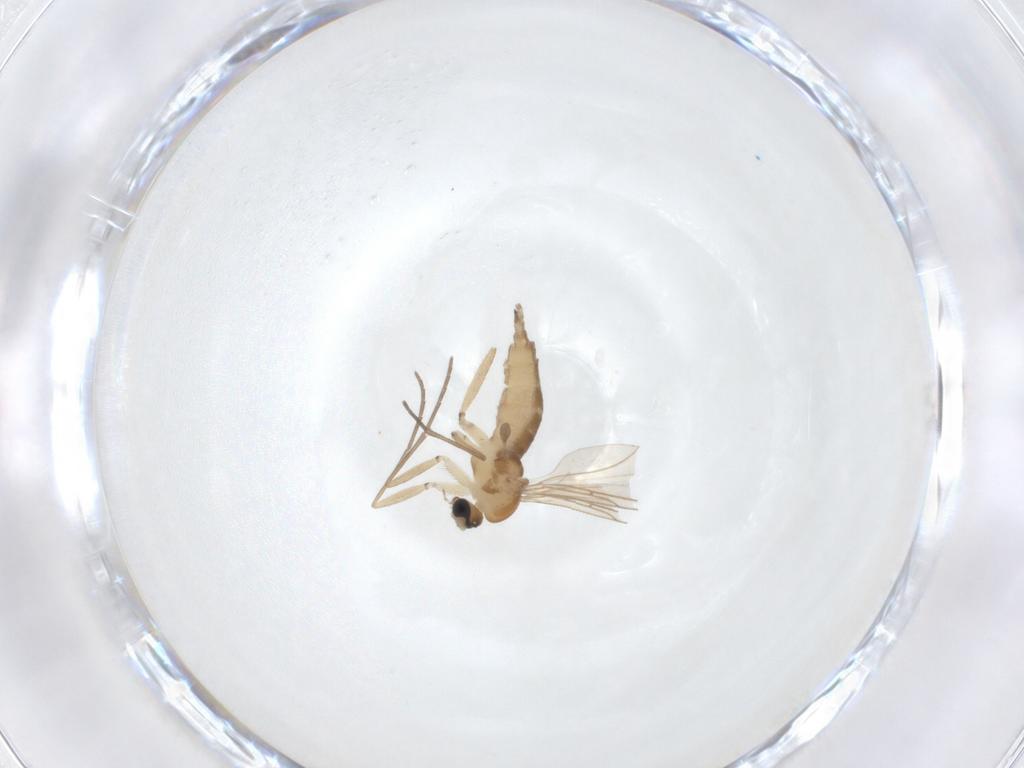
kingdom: Animalia
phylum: Arthropoda
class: Insecta
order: Diptera
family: Sciaridae
